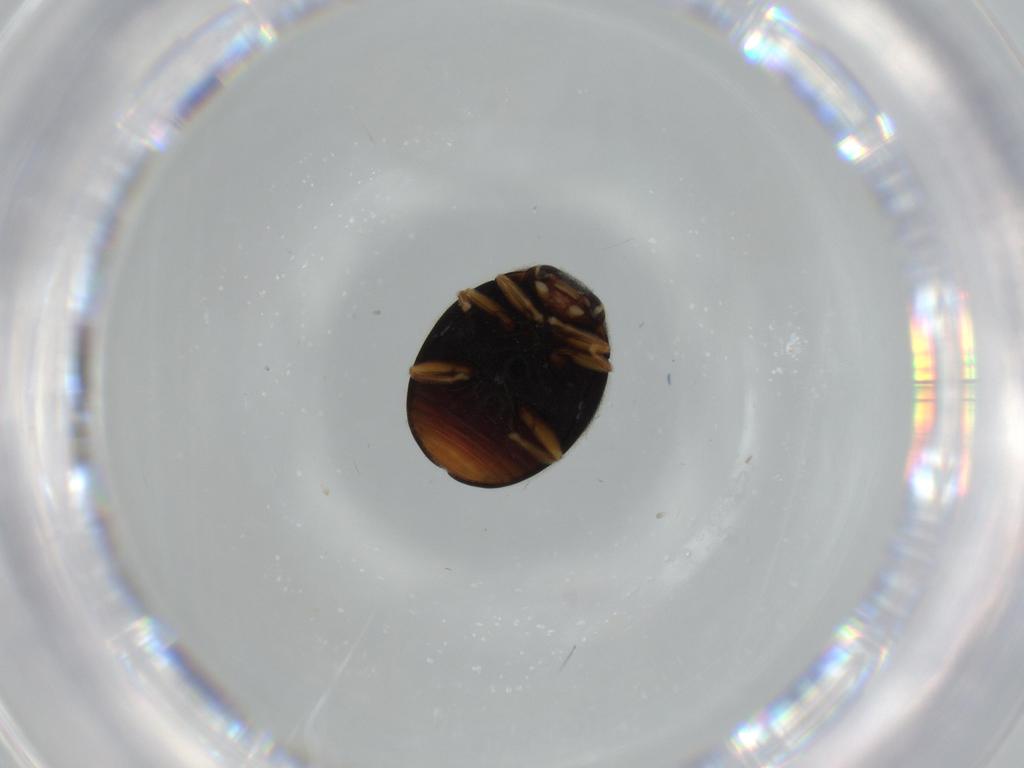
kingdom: Animalia
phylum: Arthropoda
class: Insecta
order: Coleoptera
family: Coccinellidae
